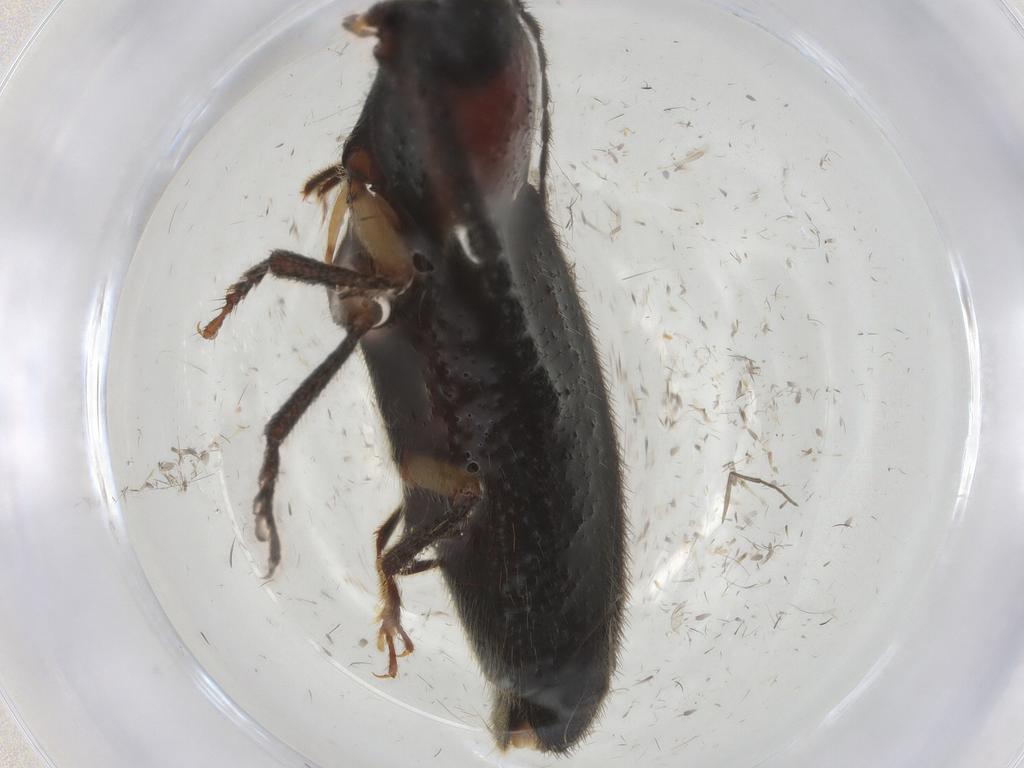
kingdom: Animalia
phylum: Arthropoda
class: Insecta
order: Coleoptera
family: Elateridae
